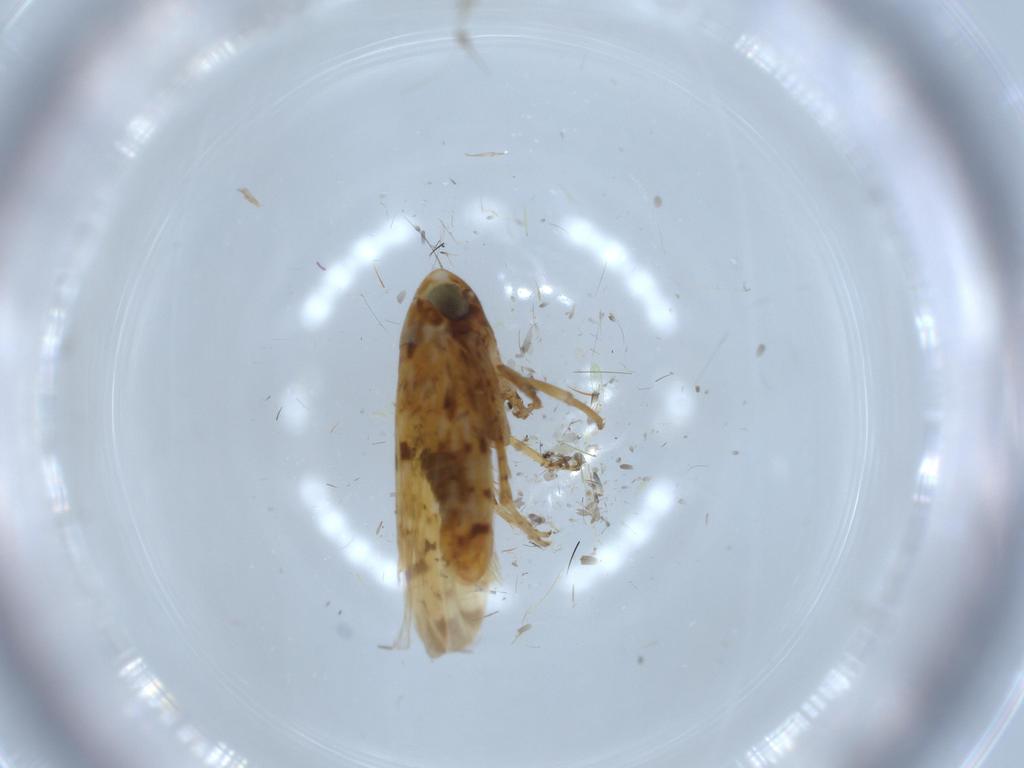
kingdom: Animalia
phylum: Arthropoda
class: Insecta
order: Hemiptera
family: Cicadellidae
